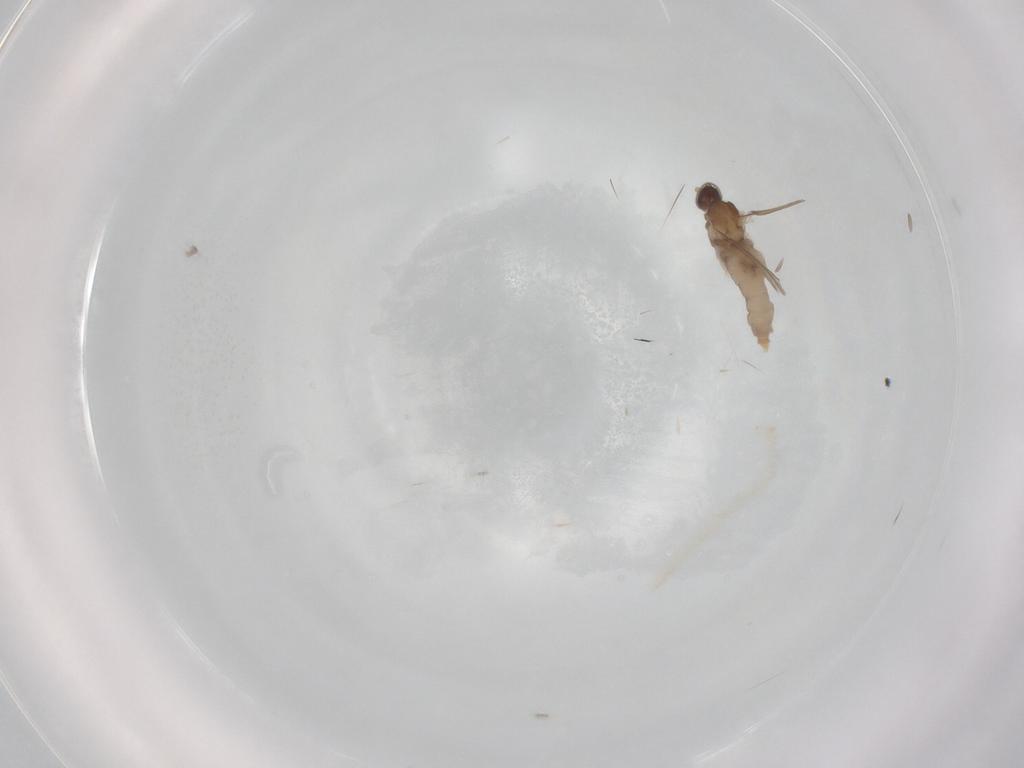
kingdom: Animalia
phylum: Arthropoda
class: Insecta
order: Diptera
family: Cecidomyiidae
